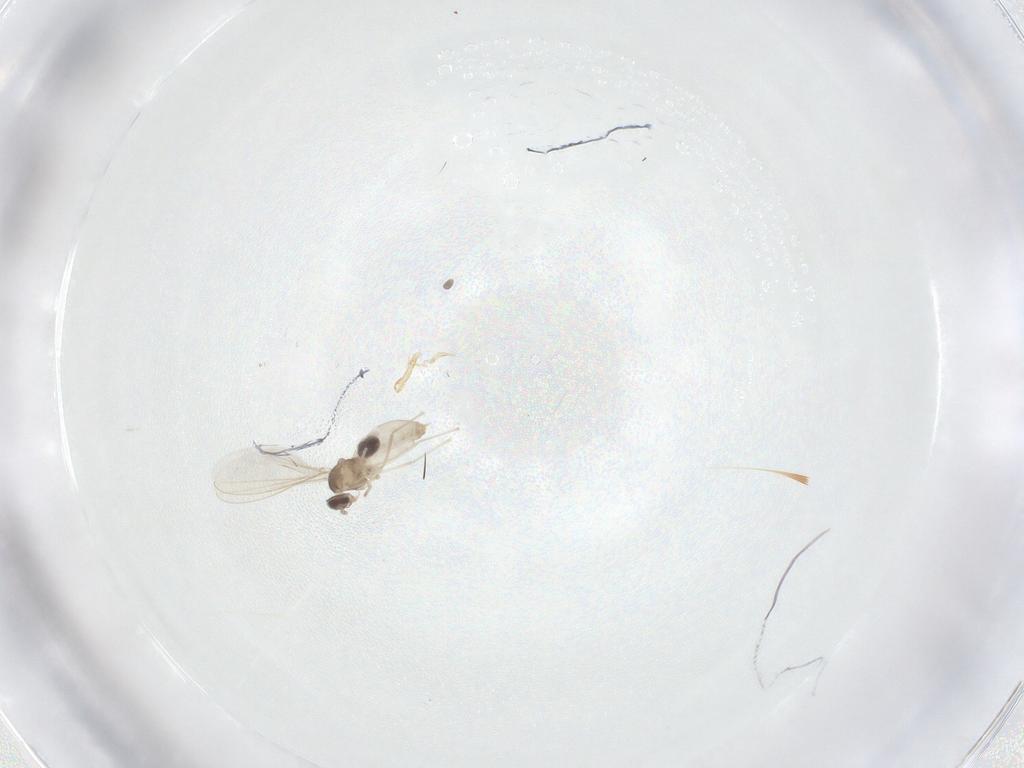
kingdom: Animalia
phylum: Arthropoda
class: Insecta
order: Diptera
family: Cecidomyiidae
